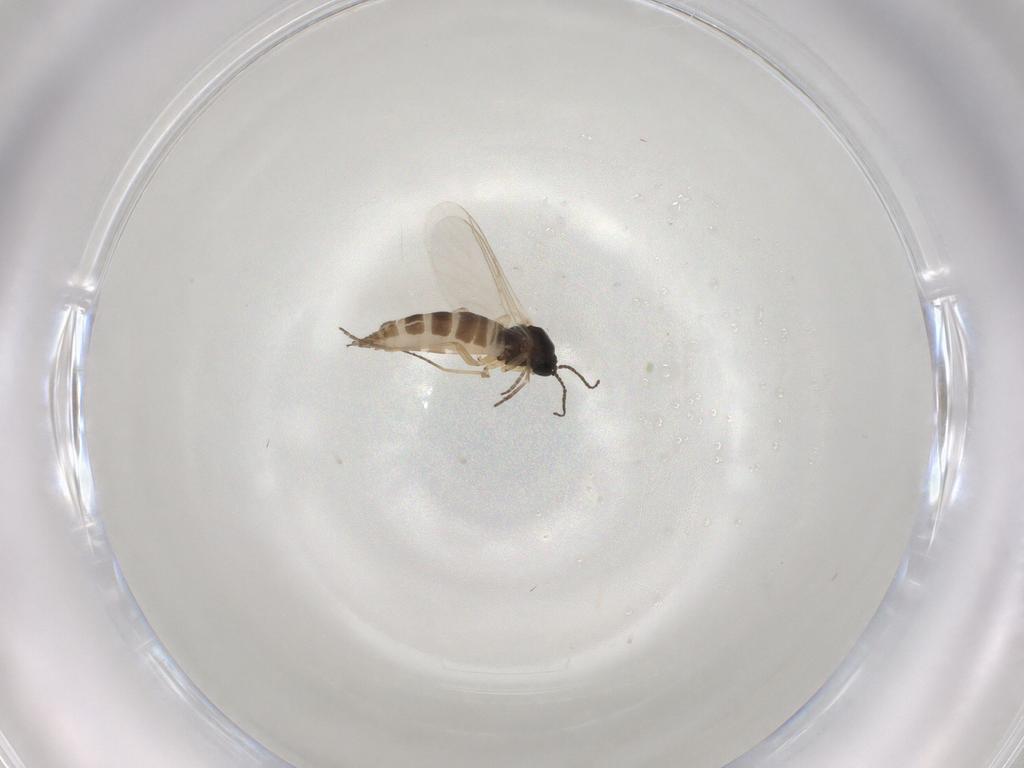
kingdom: Animalia
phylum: Arthropoda
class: Insecta
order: Diptera
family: Sciaridae
